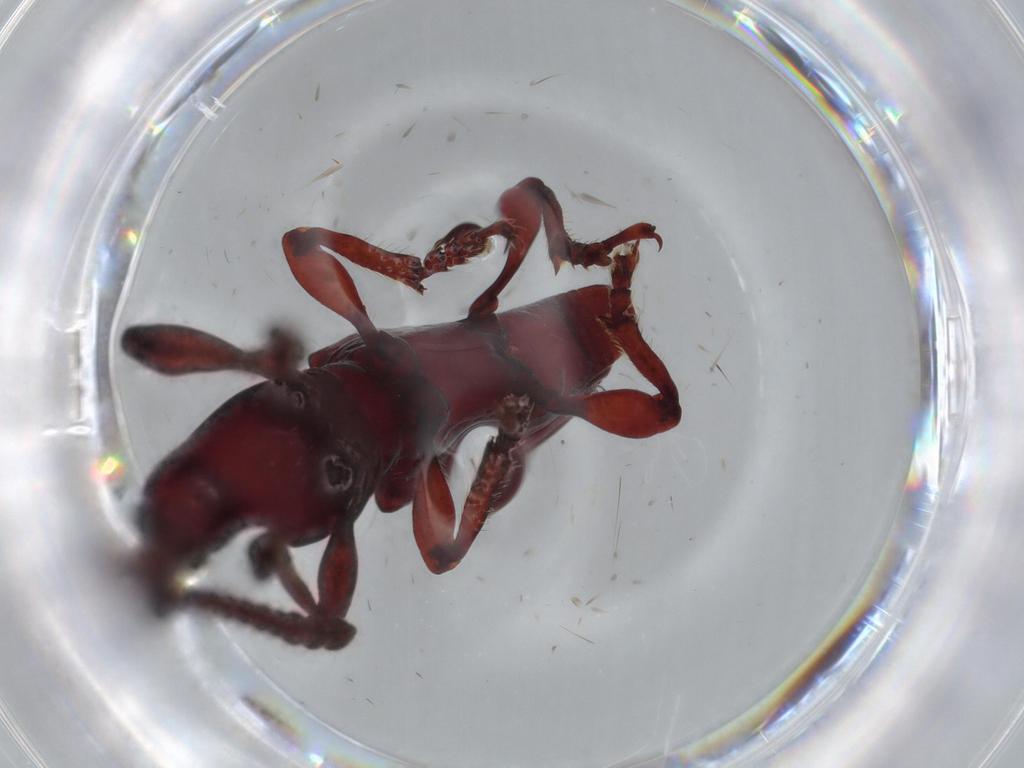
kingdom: Animalia
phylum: Arthropoda
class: Insecta
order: Coleoptera
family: Brentidae
